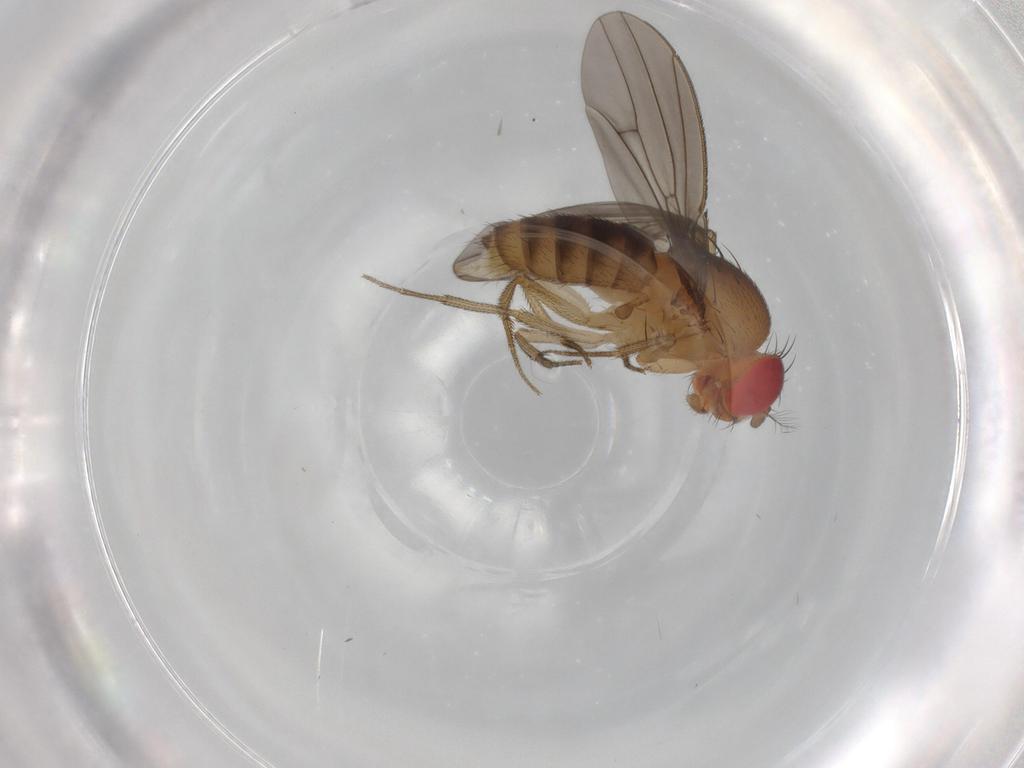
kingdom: Animalia
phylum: Arthropoda
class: Insecta
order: Diptera
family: Drosophilidae
